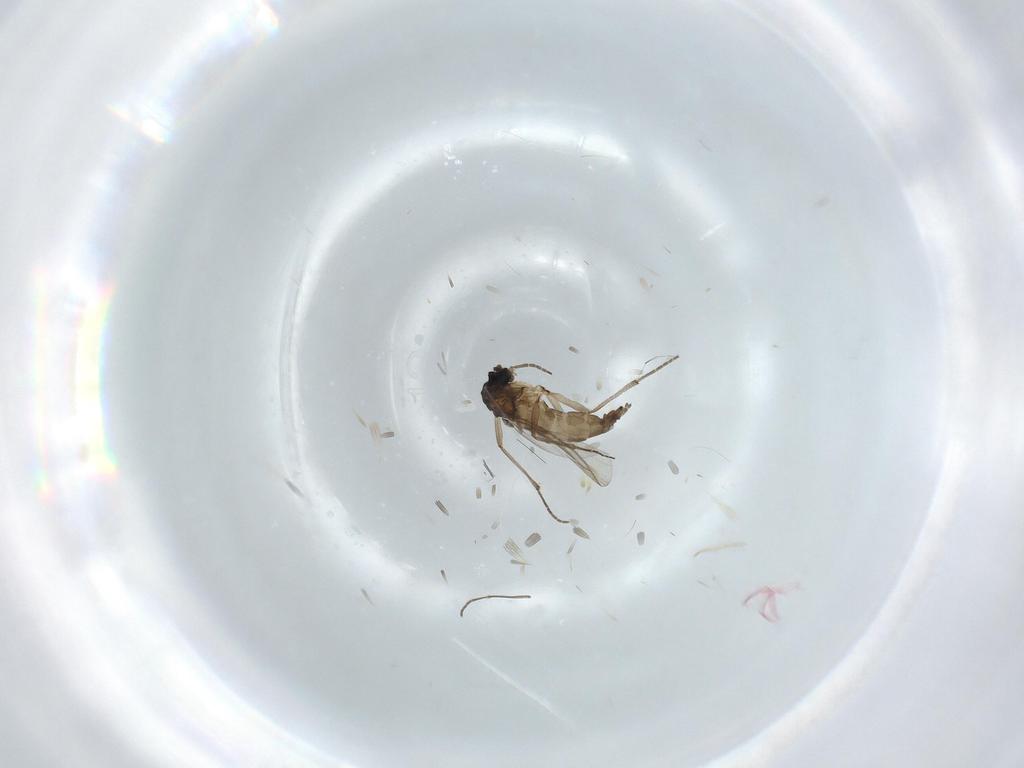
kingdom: Animalia
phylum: Arthropoda
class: Insecta
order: Diptera
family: Sciaridae
